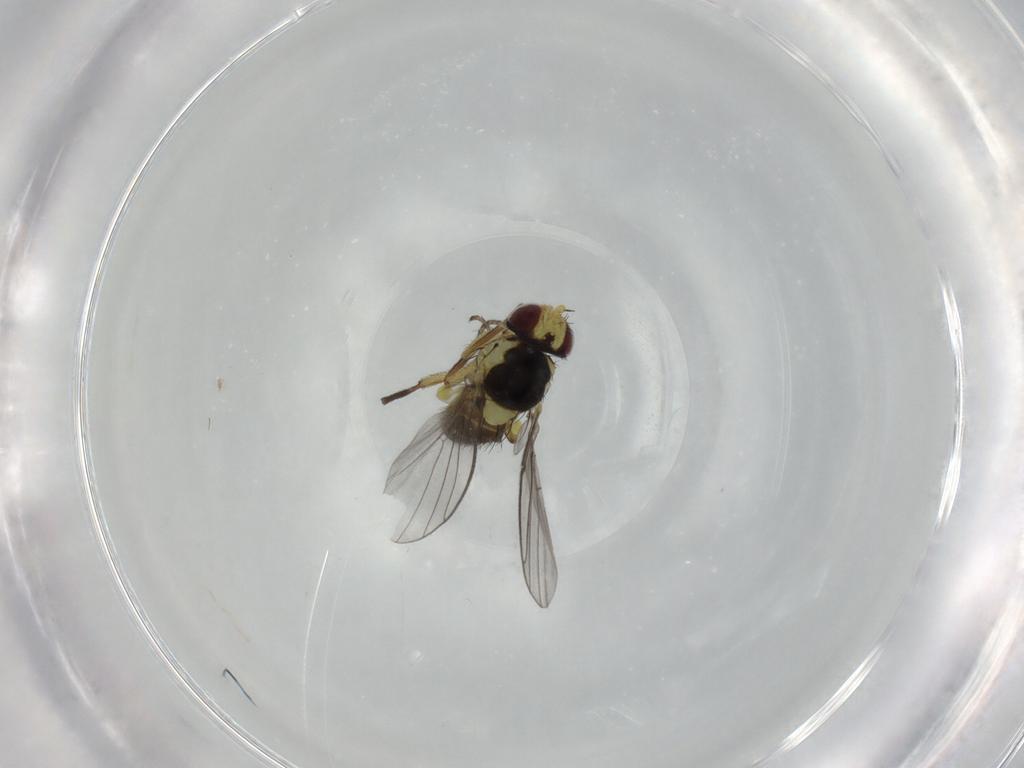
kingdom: Animalia
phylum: Arthropoda
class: Insecta
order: Diptera
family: Agromyzidae
